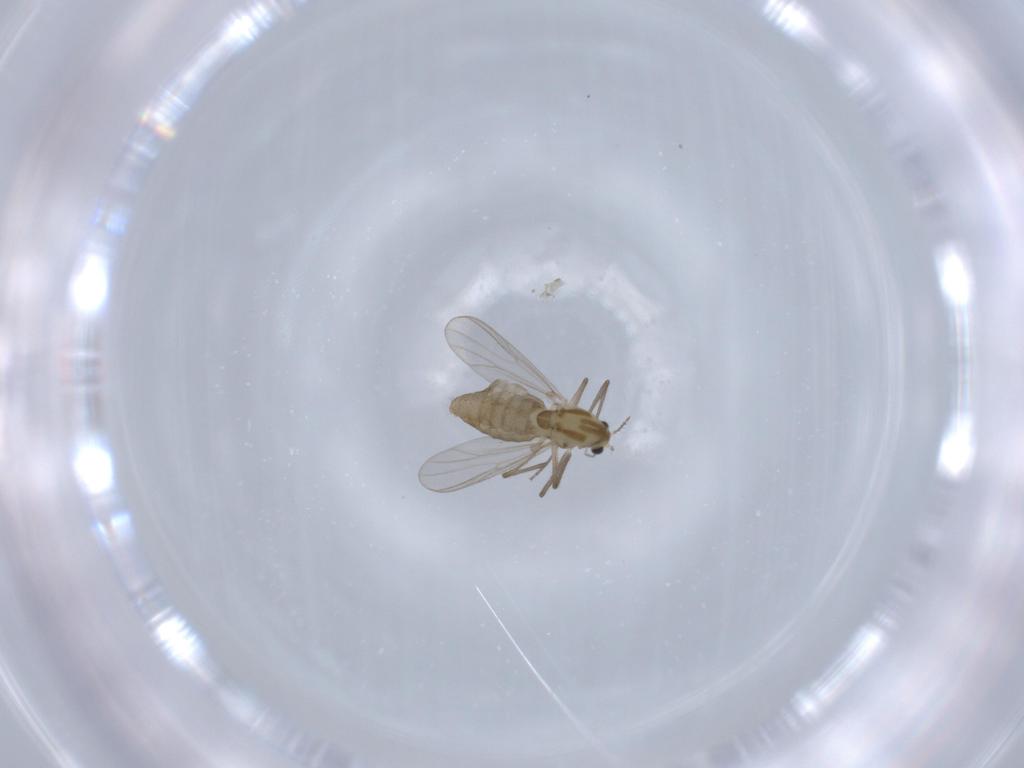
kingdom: Animalia
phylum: Arthropoda
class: Insecta
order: Diptera
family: Chironomidae
